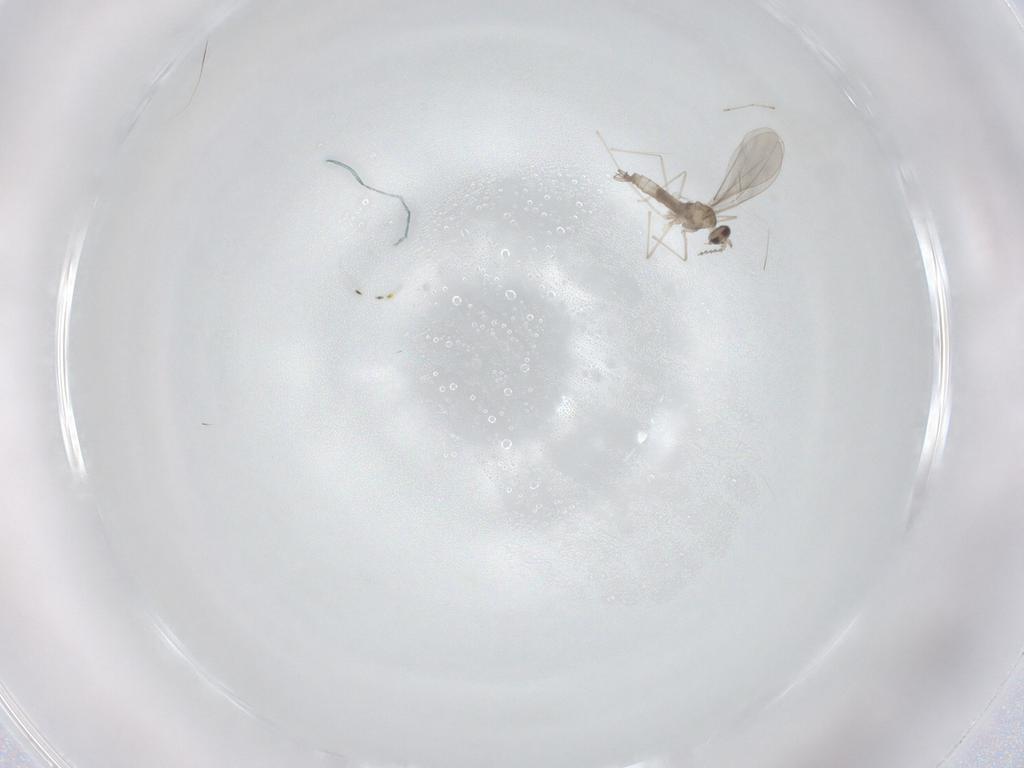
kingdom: Animalia
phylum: Arthropoda
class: Insecta
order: Diptera
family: Cecidomyiidae
